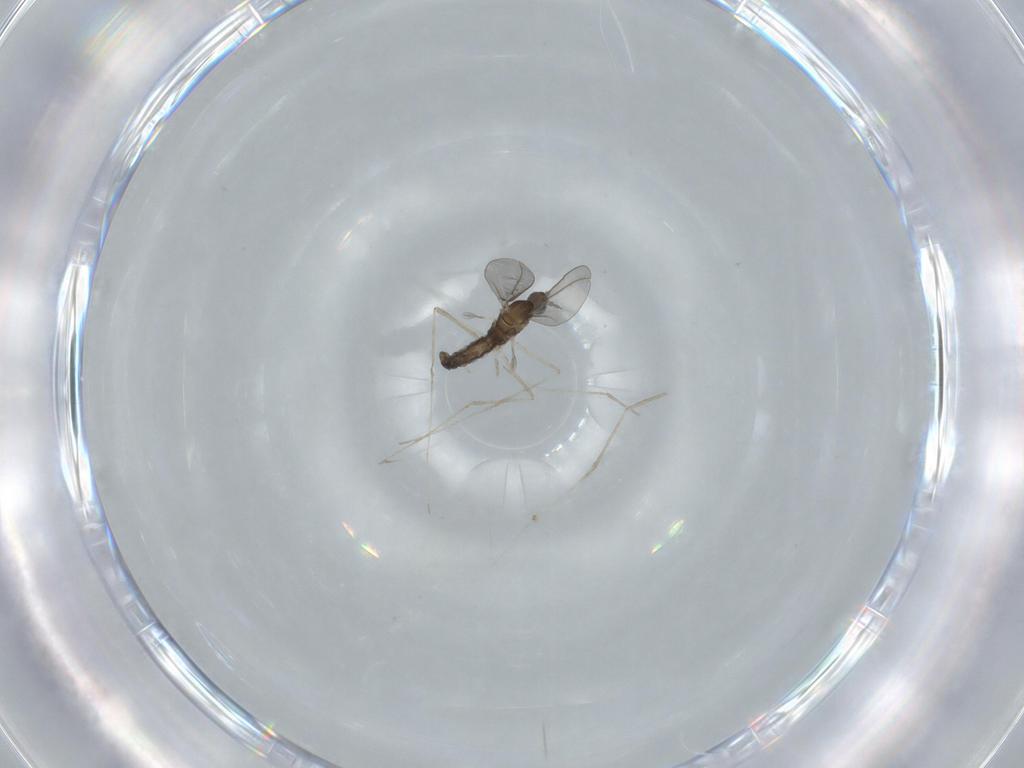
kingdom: Animalia
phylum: Arthropoda
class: Insecta
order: Diptera
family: Cecidomyiidae
